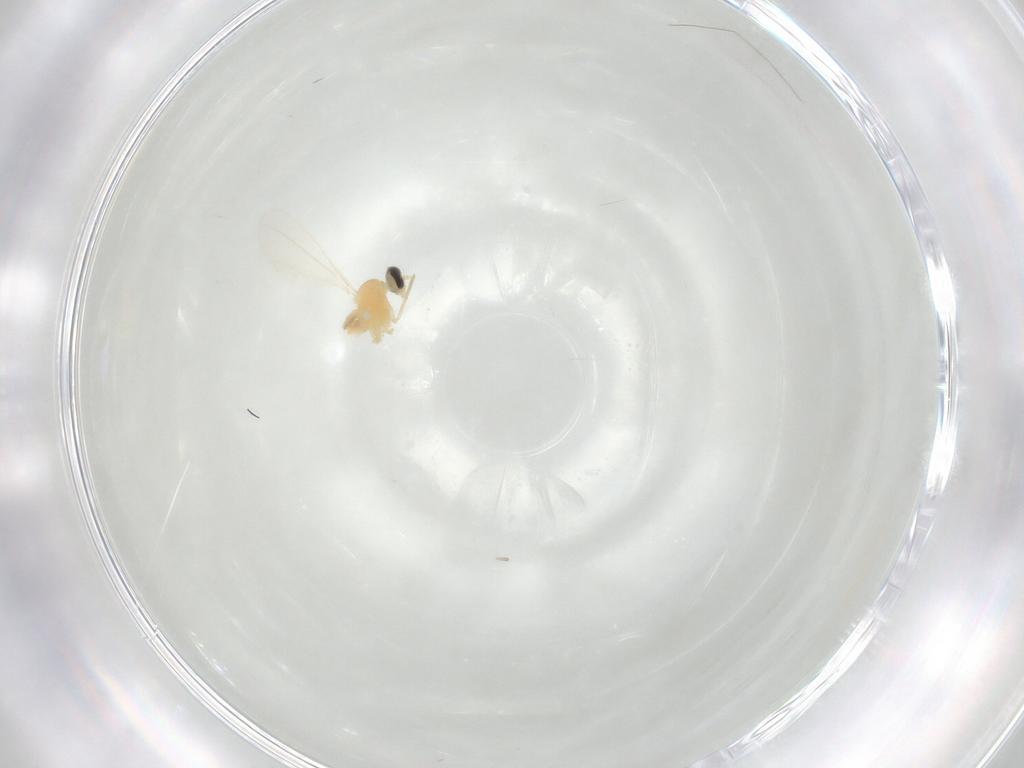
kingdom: Animalia
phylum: Arthropoda
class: Insecta
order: Diptera
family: Cecidomyiidae
